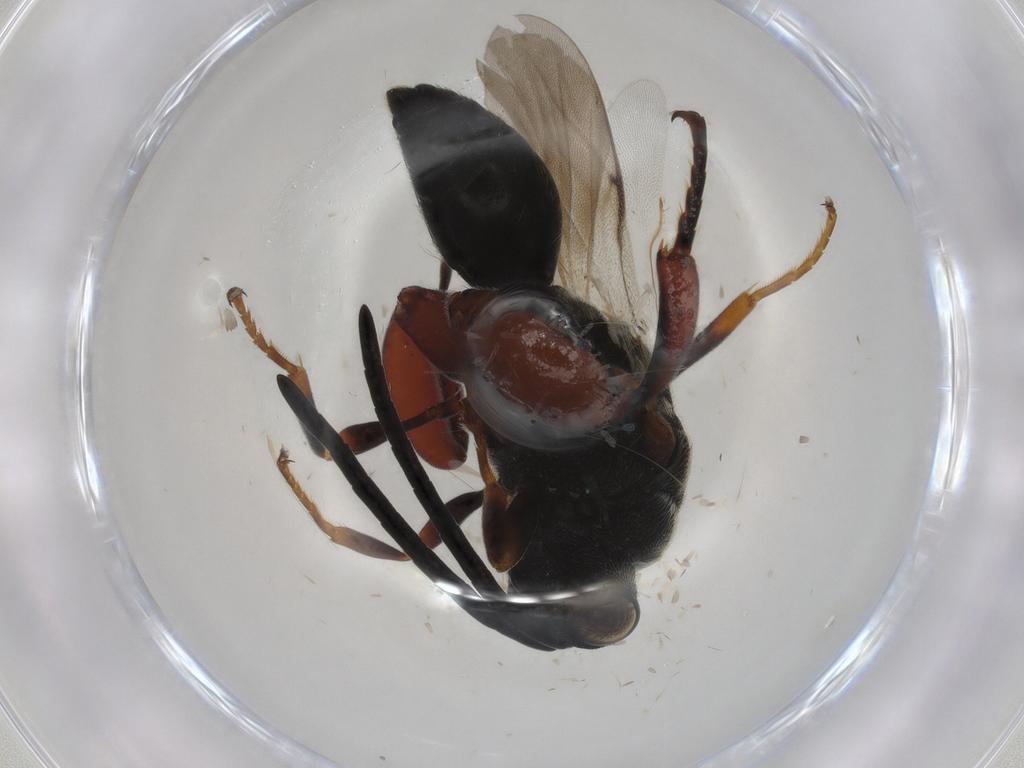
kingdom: Animalia
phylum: Arthropoda
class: Insecta
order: Hymenoptera
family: Chalcididae
